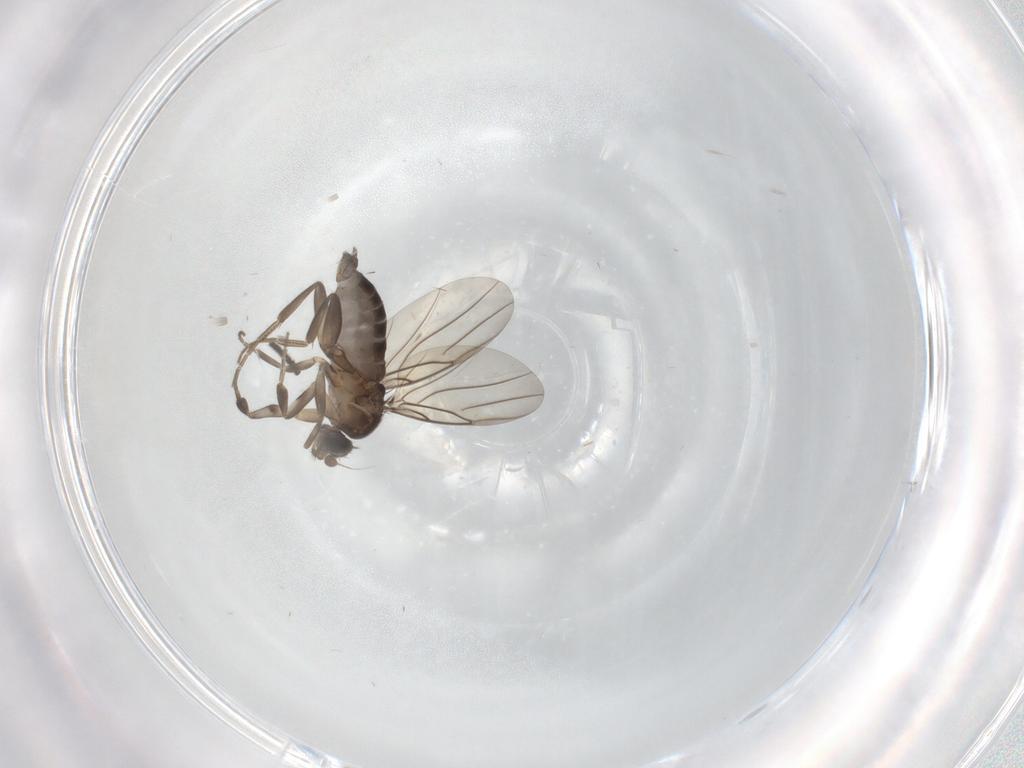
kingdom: Animalia
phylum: Arthropoda
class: Insecta
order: Diptera
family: Phoridae
